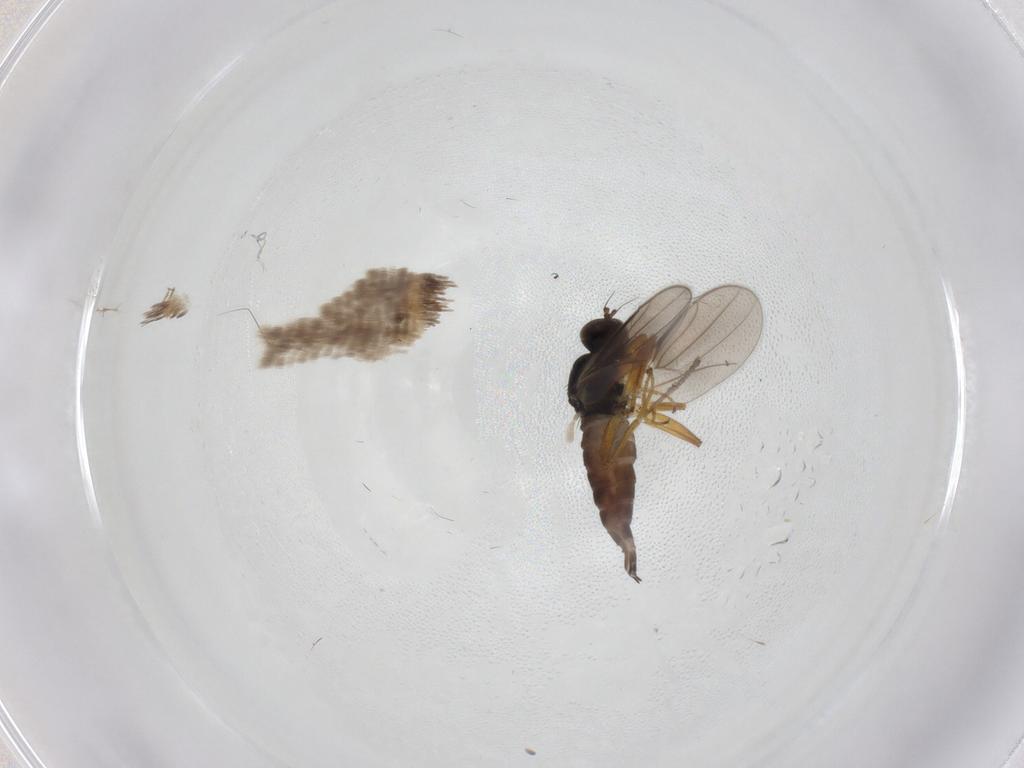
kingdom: Animalia
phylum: Arthropoda
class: Insecta
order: Diptera
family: Hybotidae
